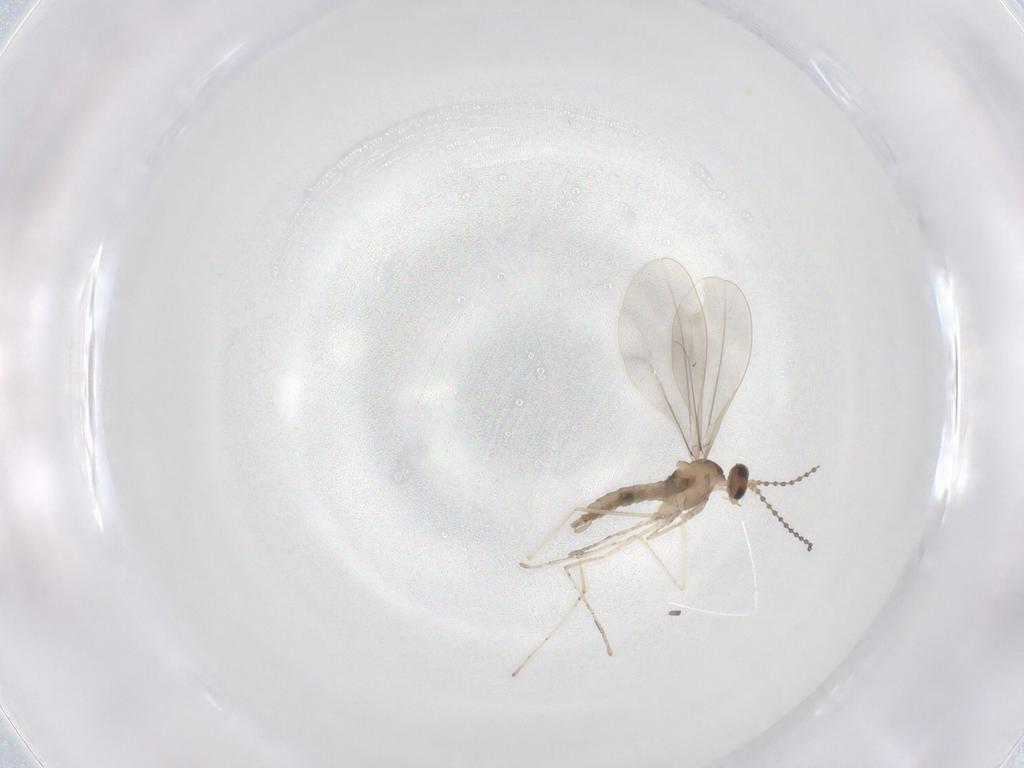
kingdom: Animalia
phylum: Arthropoda
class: Insecta
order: Diptera
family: Cecidomyiidae
